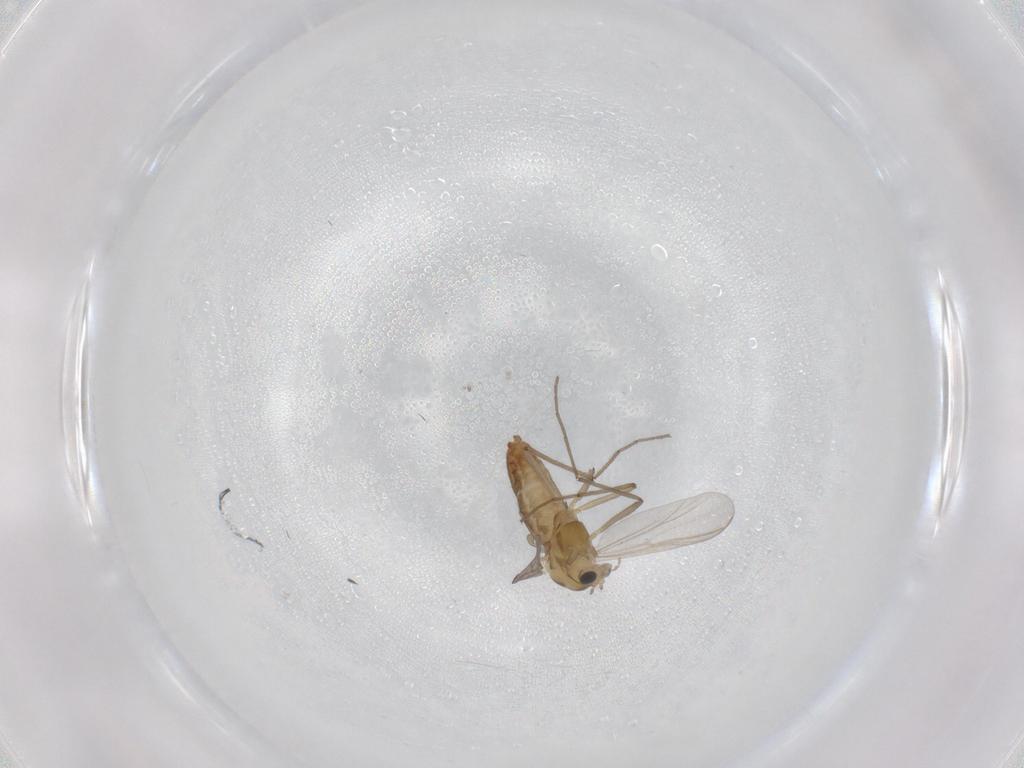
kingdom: Animalia
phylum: Arthropoda
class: Insecta
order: Diptera
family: Chironomidae
